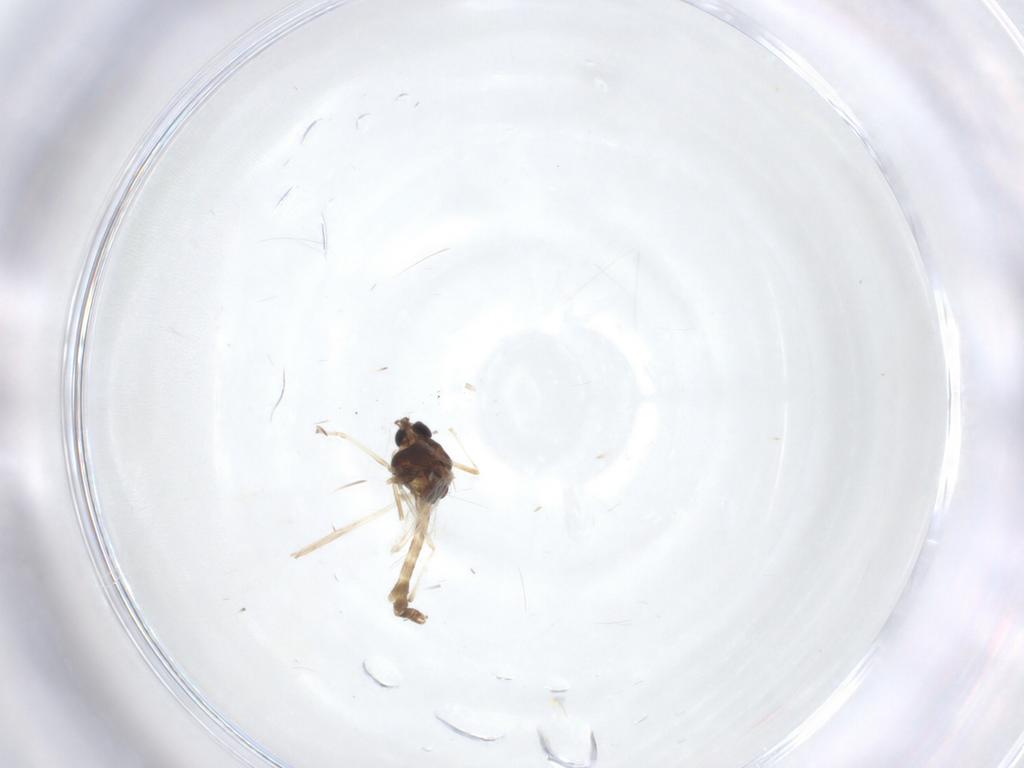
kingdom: Animalia
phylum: Arthropoda
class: Insecta
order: Diptera
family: Chironomidae
